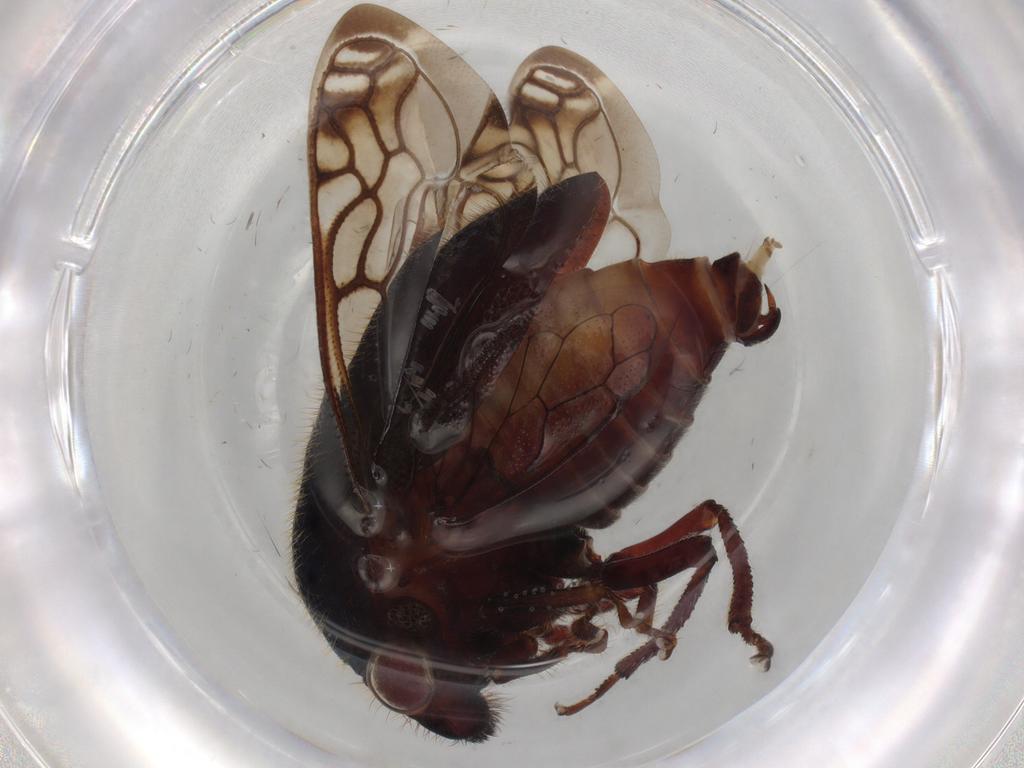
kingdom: Animalia
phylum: Arthropoda
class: Insecta
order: Hemiptera
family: Membracidae
